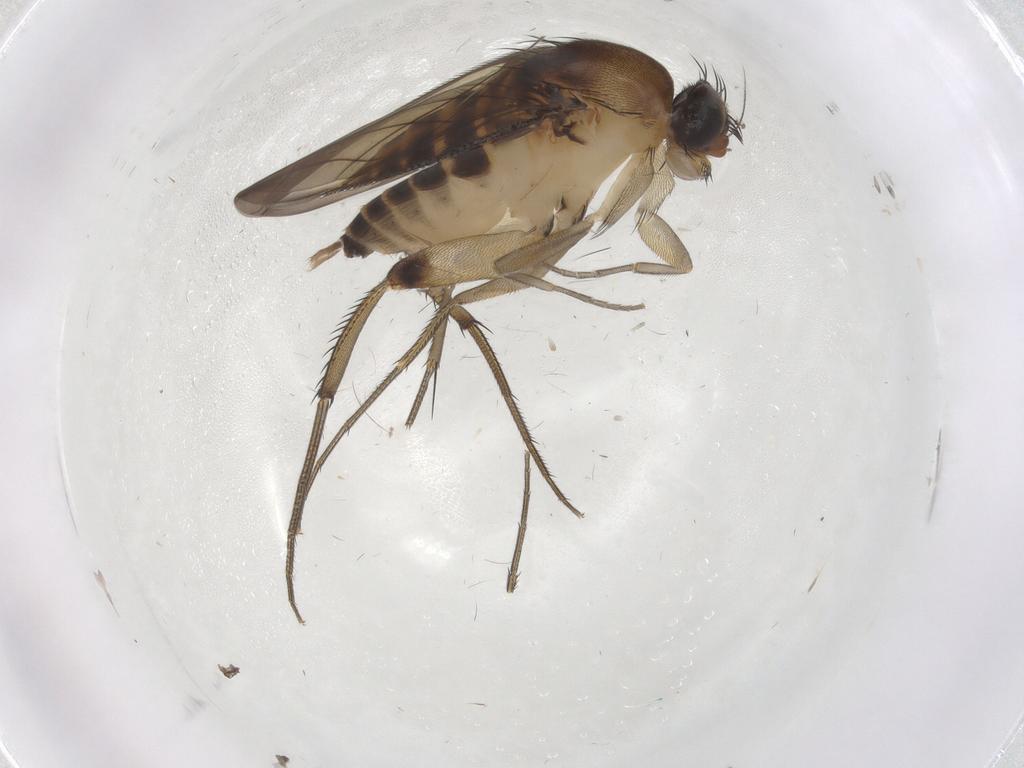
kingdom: Animalia
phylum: Arthropoda
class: Insecta
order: Diptera
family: Phoridae
